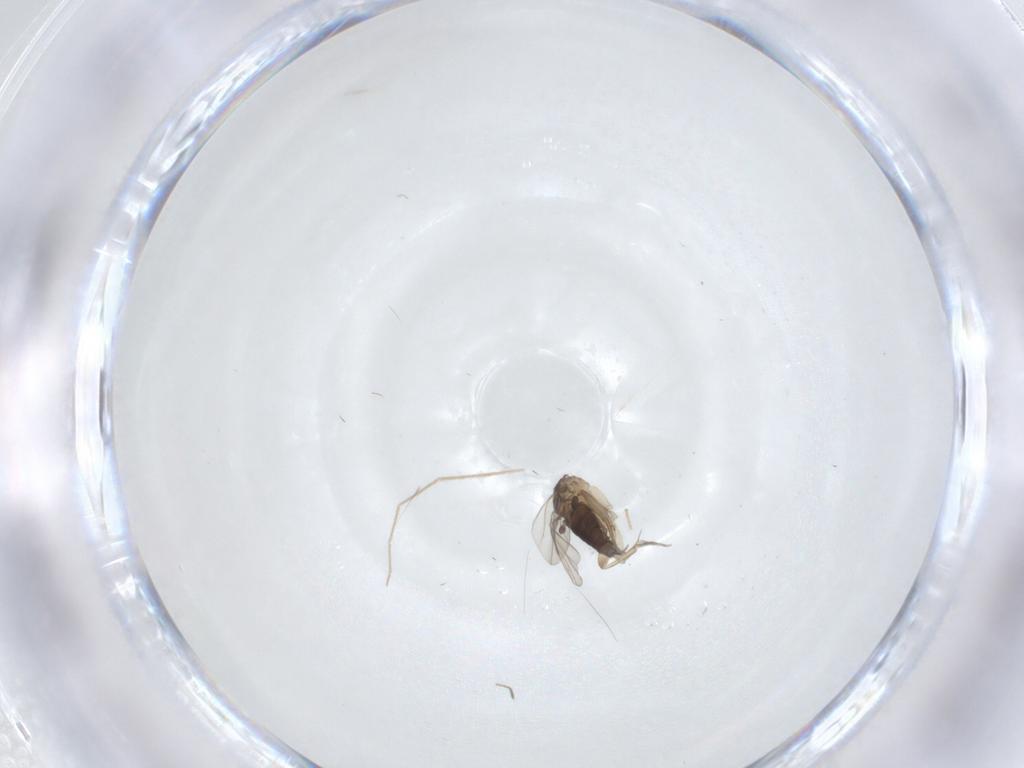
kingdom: Animalia
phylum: Arthropoda
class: Insecta
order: Diptera
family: Phoridae
